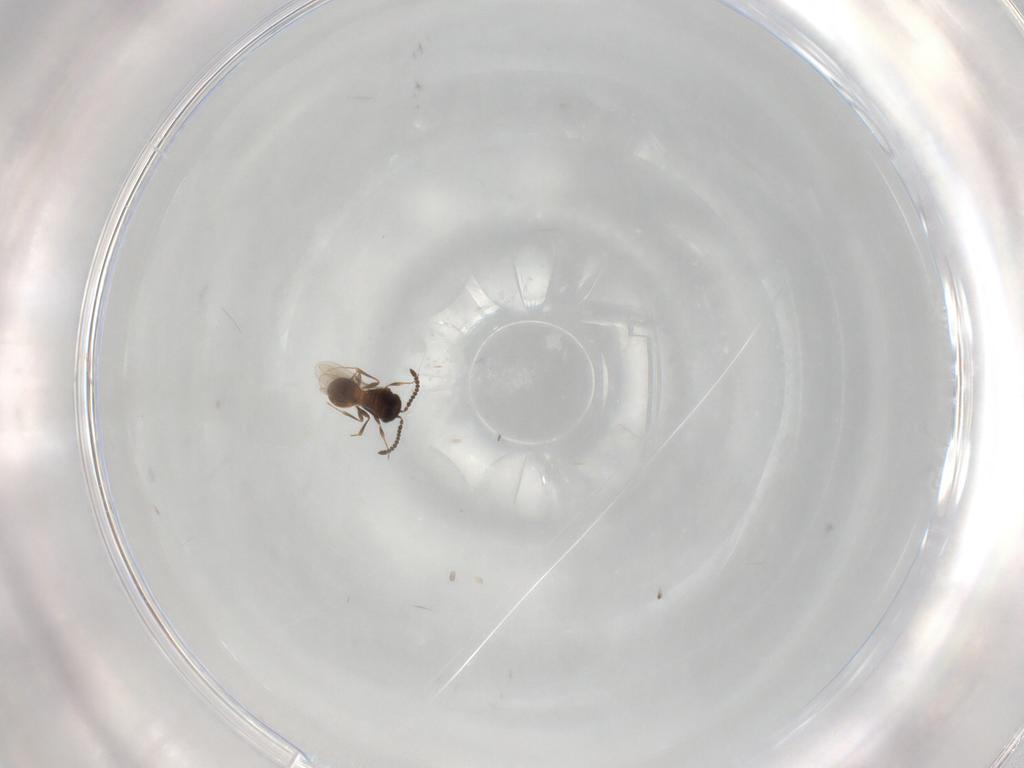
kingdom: Animalia
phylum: Arthropoda
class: Insecta
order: Hymenoptera
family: Scelionidae
